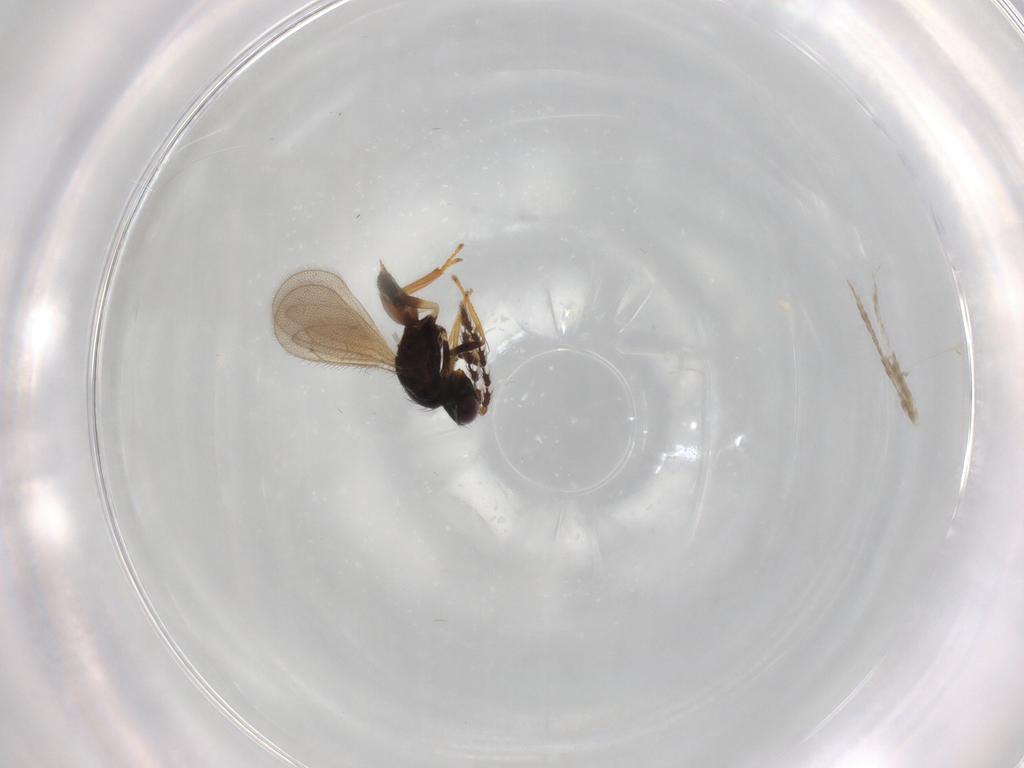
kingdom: Animalia
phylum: Arthropoda
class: Insecta
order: Hymenoptera
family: Eulophidae
